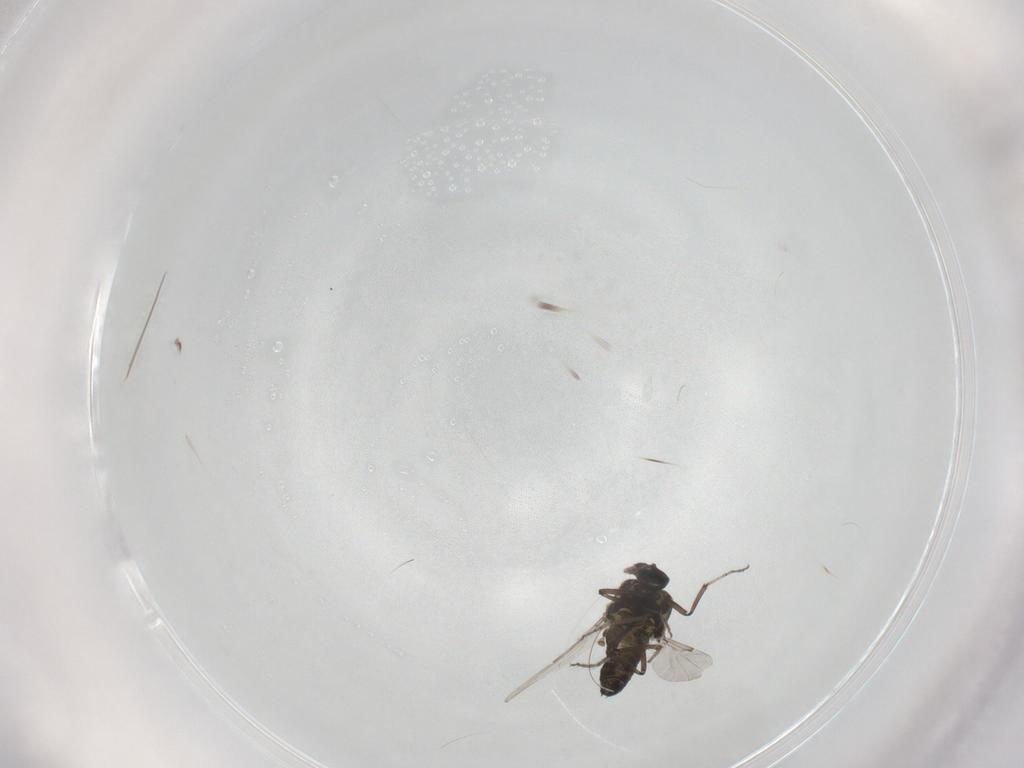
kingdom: Animalia
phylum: Arthropoda
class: Insecta
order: Diptera
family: Ceratopogonidae
